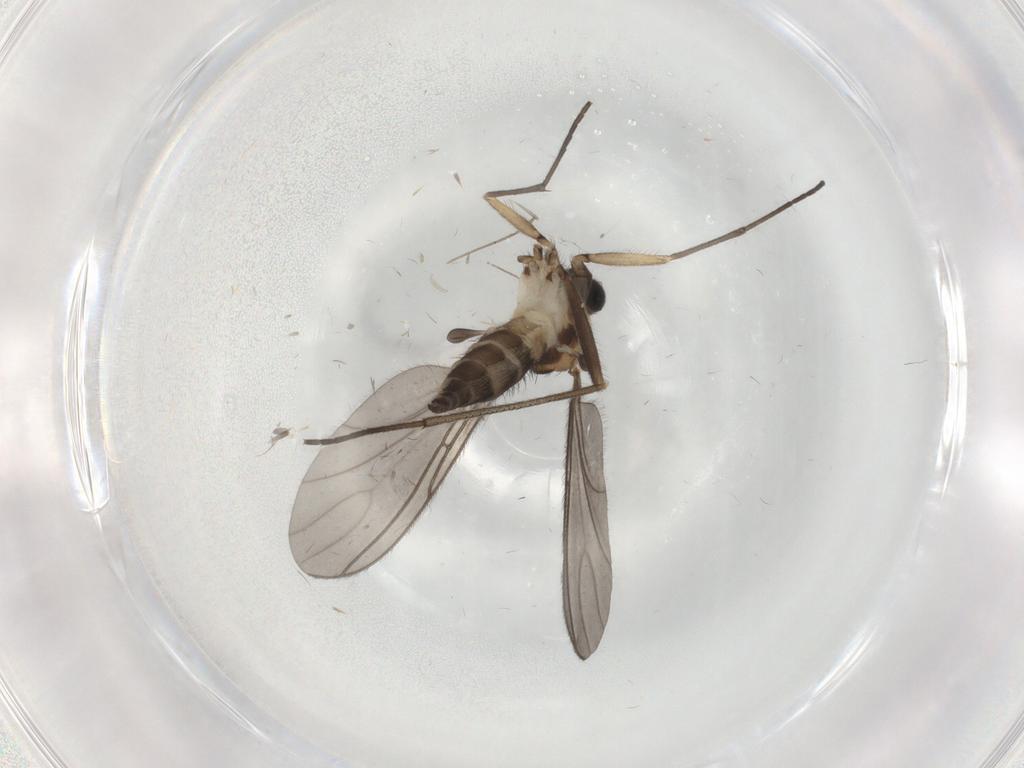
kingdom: Animalia
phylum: Arthropoda
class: Insecta
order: Diptera
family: Sciaridae
